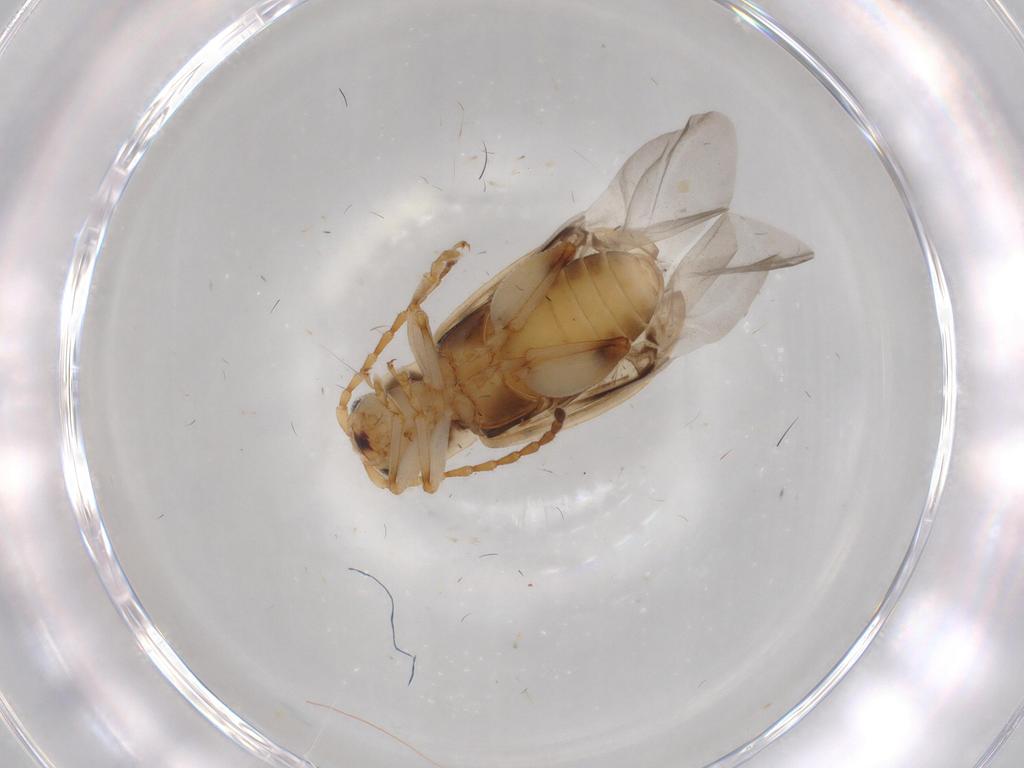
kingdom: Animalia
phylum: Arthropoda
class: Insecta
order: Coleoptera
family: Chrysomelidae
